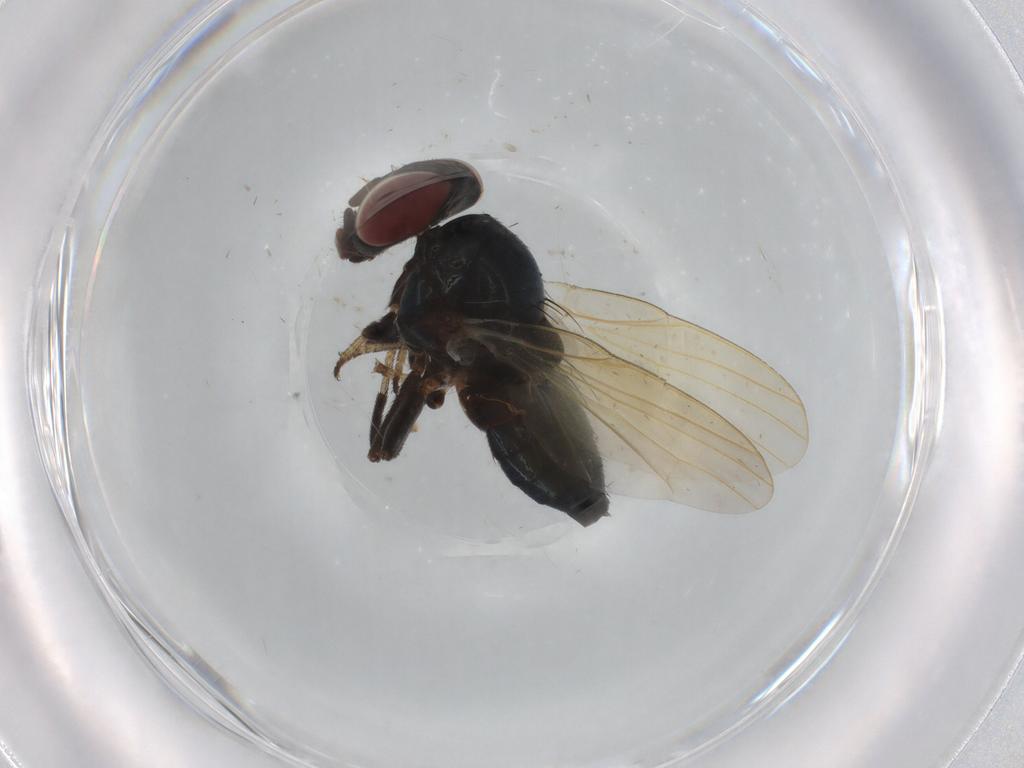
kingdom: Animalia
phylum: Arthropoda
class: Insecta
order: Diptera
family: Lonchaeidae
